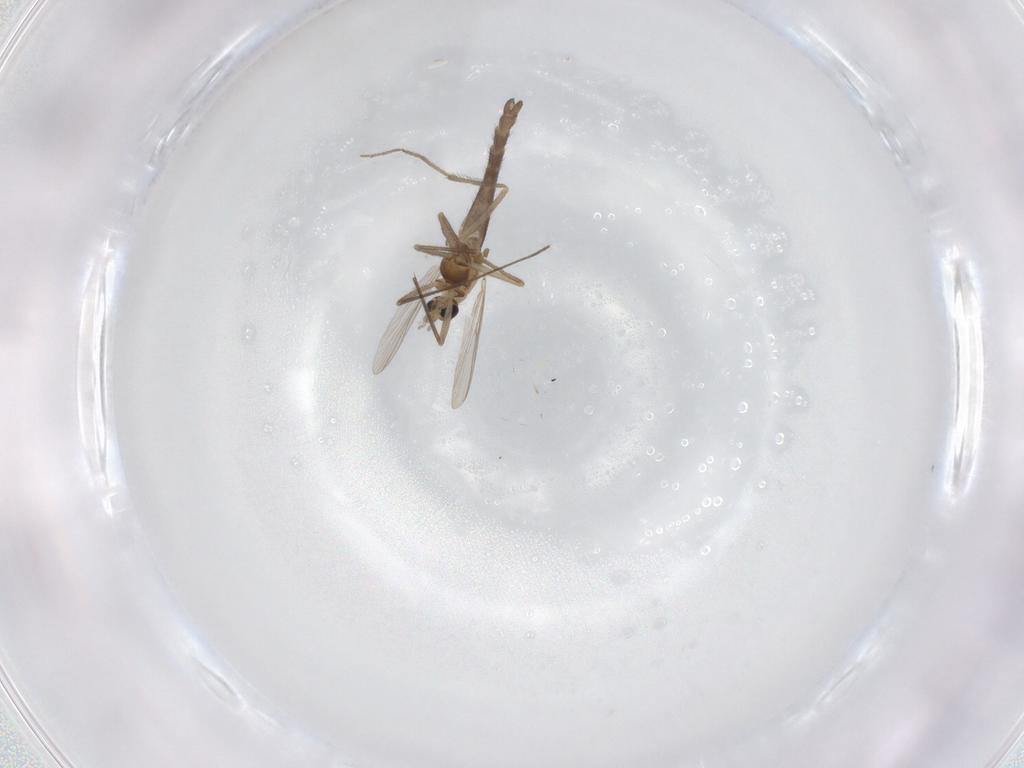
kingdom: Animalia
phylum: Arthropoda
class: Insecta
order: Diptera
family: Chironomidae
